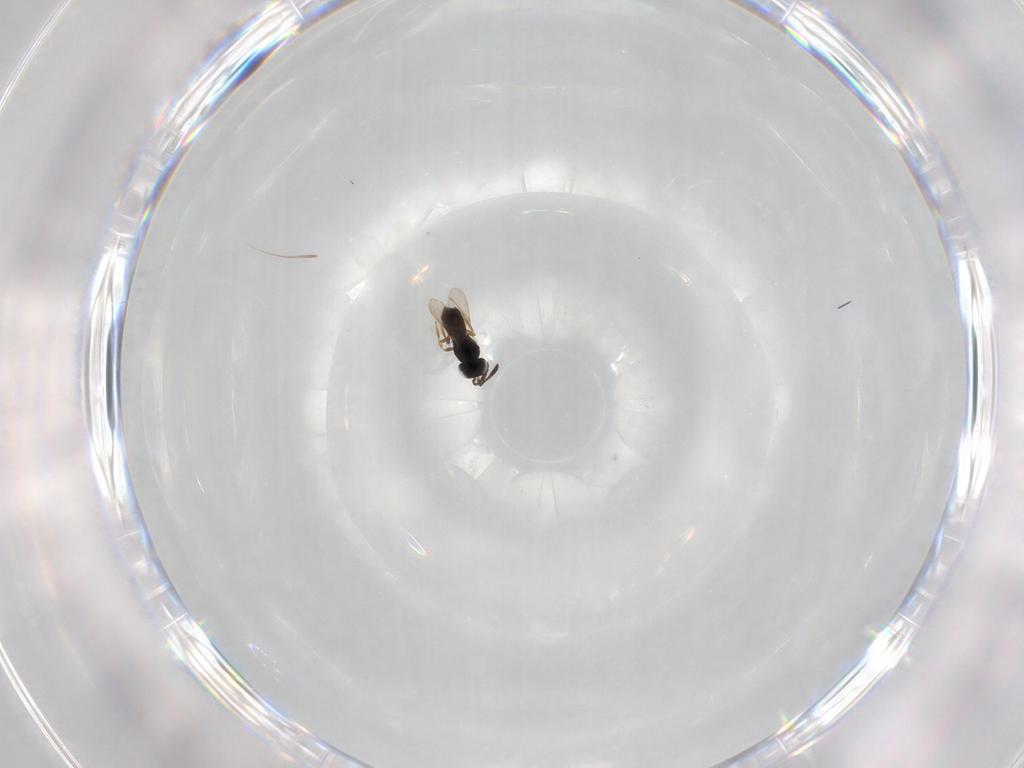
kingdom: Animalia
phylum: Arthropoda
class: Insecta
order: Hymenoptera
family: Scelionidae
